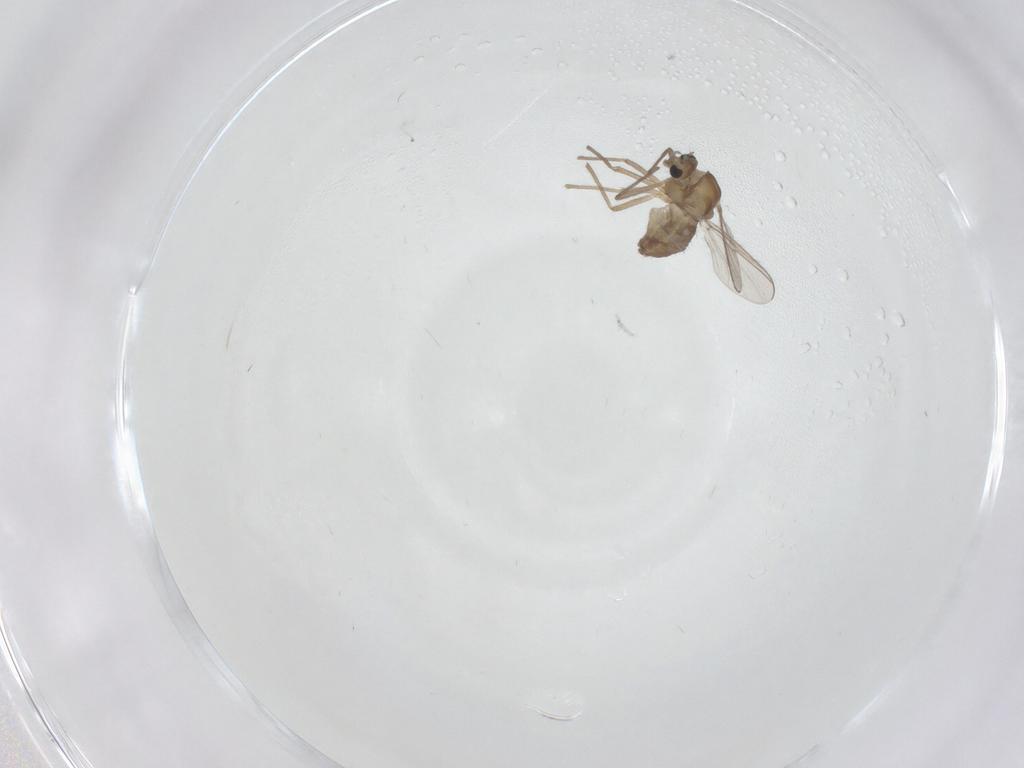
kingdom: Animalia
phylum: Arthropoda
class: Insecta
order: Diptera
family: Chironomidae
